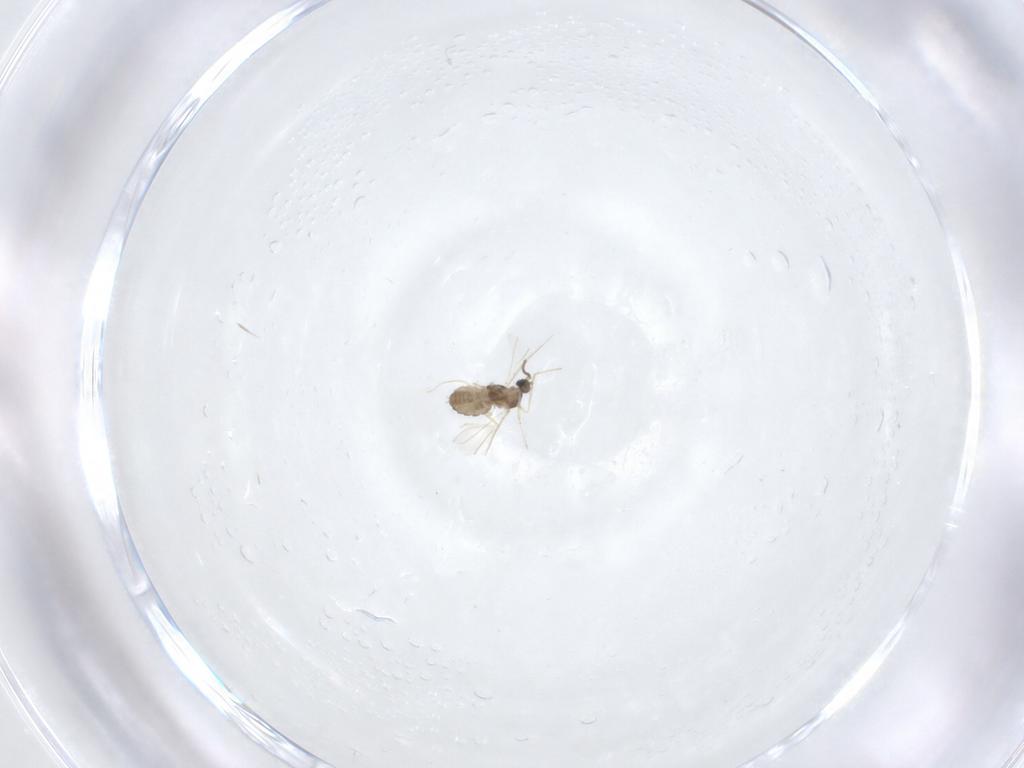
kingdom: Animalia
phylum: Arthropoda
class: Insecta
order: Diptera
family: Cecidomyiidae
